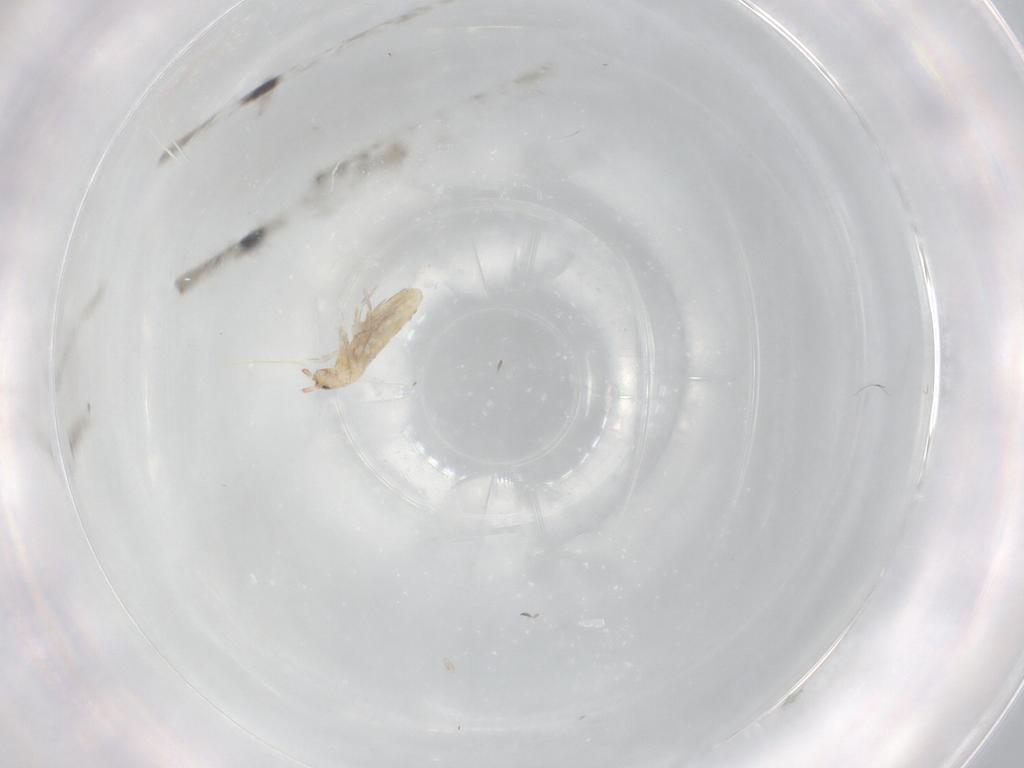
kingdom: Animalia
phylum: Arthropoda
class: Collembola
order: Entomobryomorpha
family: Entomobryidae
